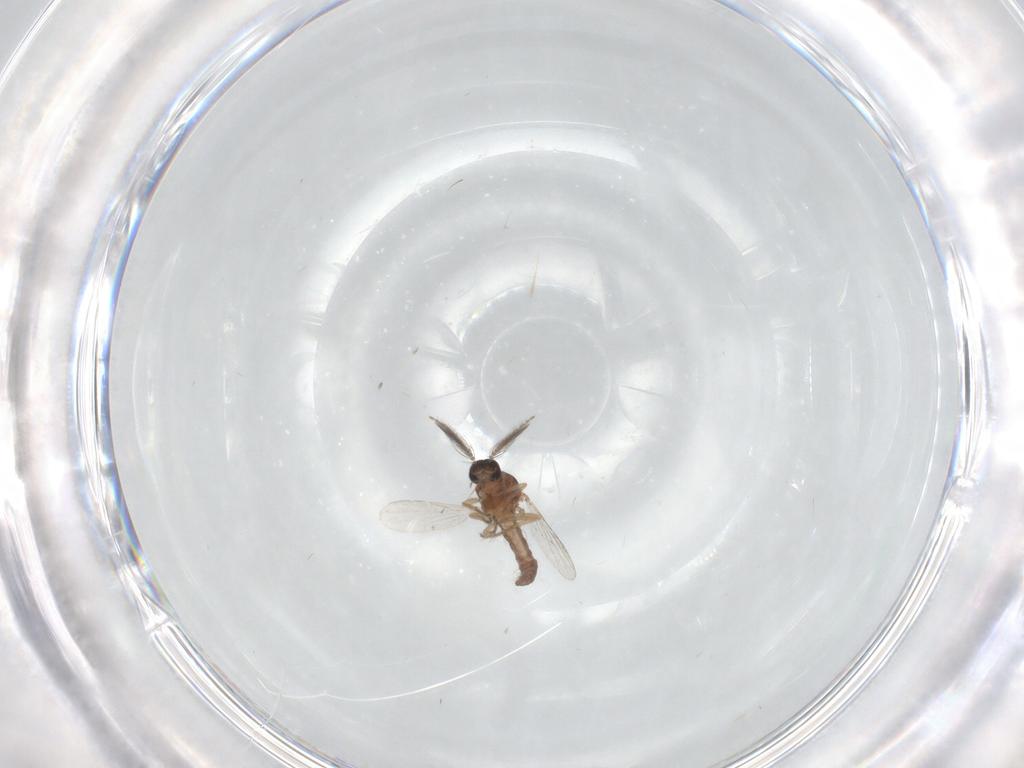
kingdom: Animalia
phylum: Arthropoda
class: Insecta
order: Diptera
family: Ceratopogonidae
